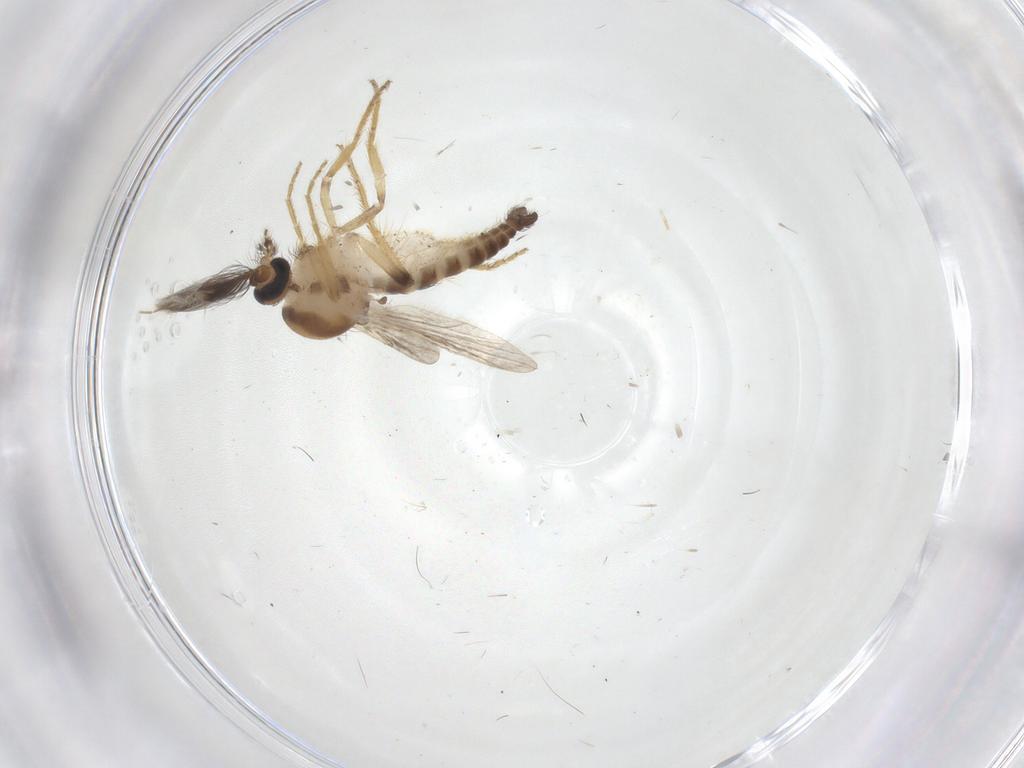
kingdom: Animalia
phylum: Arthropoda
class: Insecta
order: Diptera
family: Ceratopogonidae
